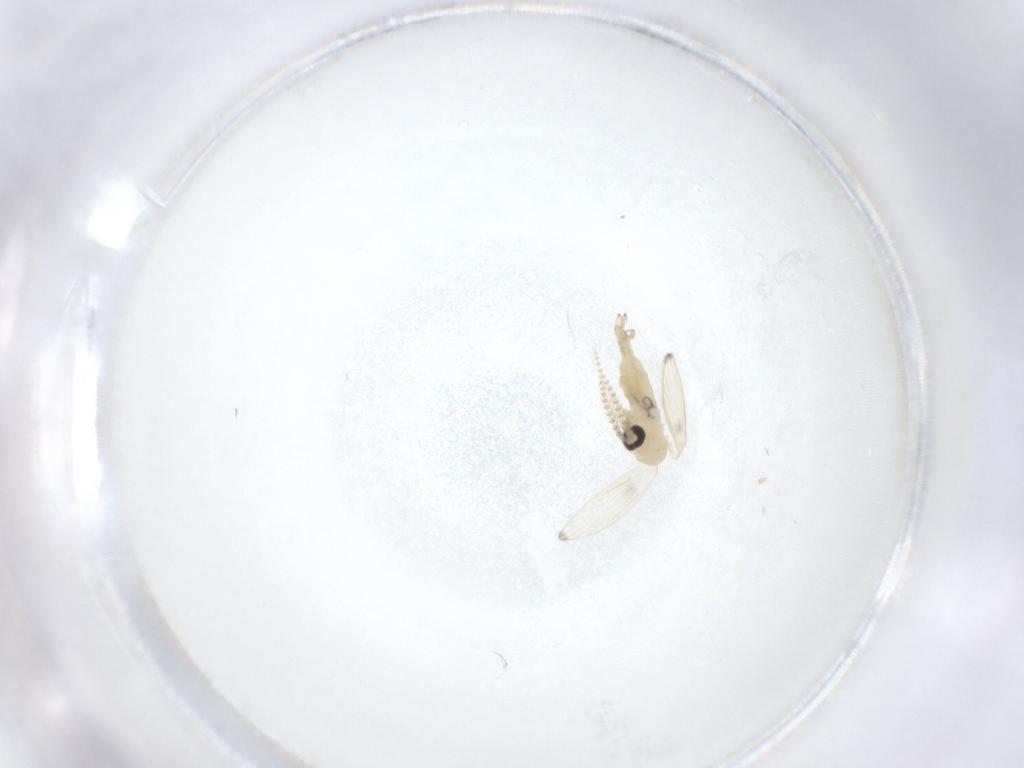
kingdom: Animalia
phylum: Arthropoda
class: Insecta
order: Diptera
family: Psychodidae
